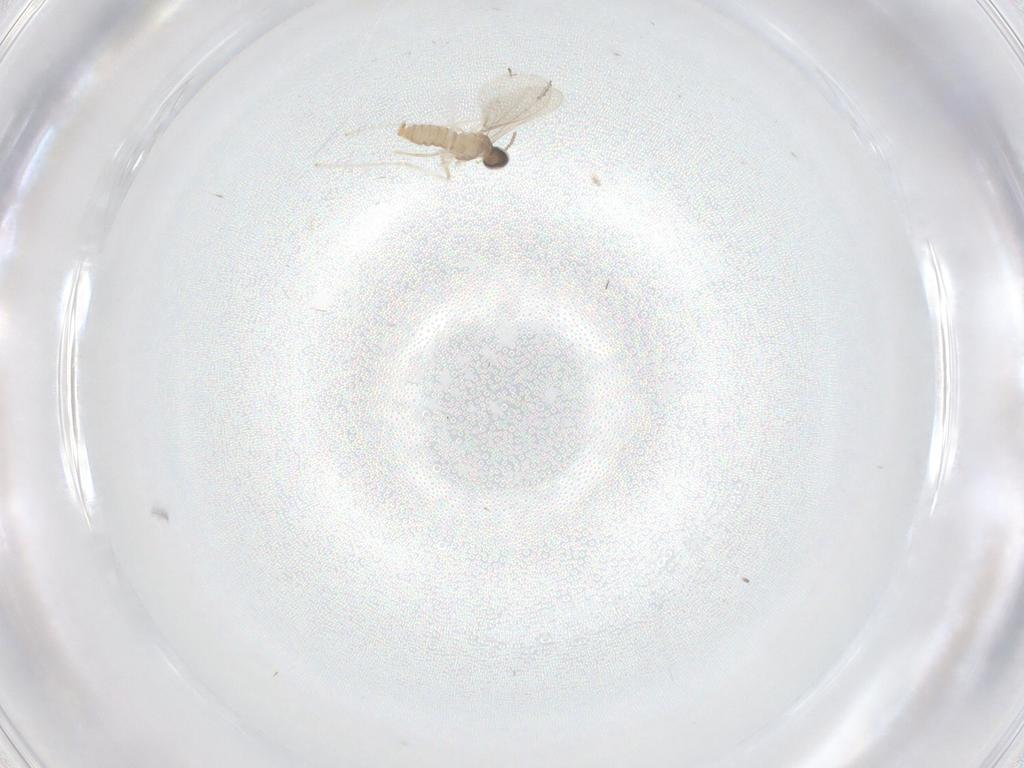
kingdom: Animalia
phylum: Arthropoda
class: Insecta
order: Diptera
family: Cecidomyiidae
